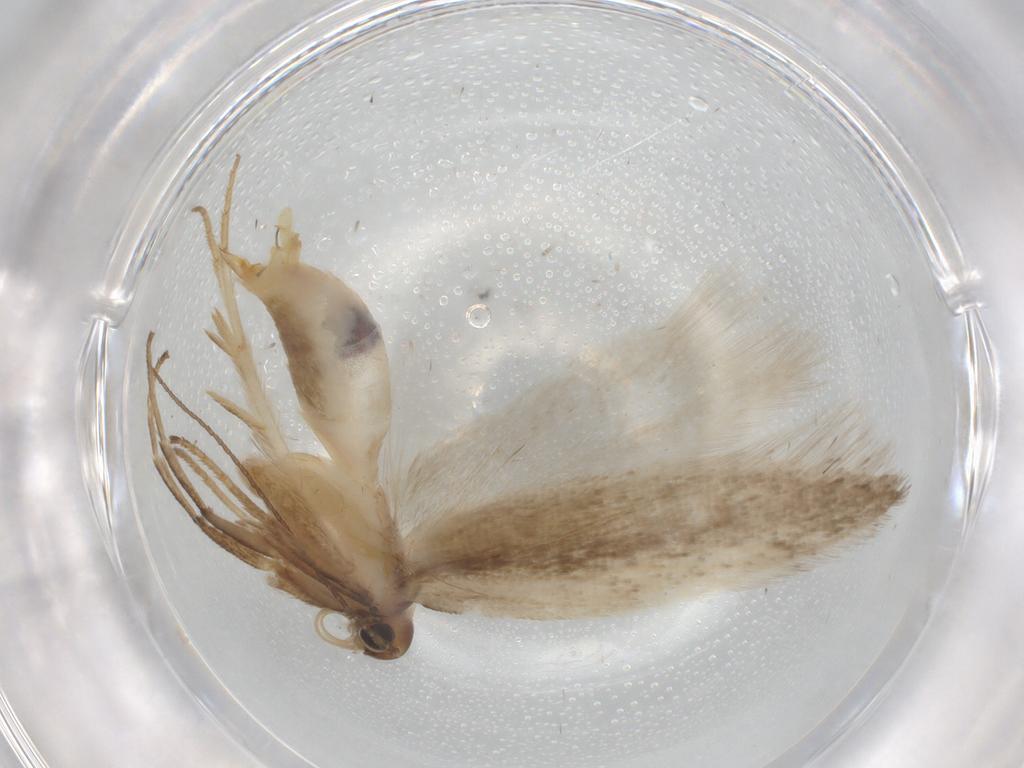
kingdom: Animalia
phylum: Arthropoda
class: Insecta
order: Lepidoptera
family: Gelechiidae
